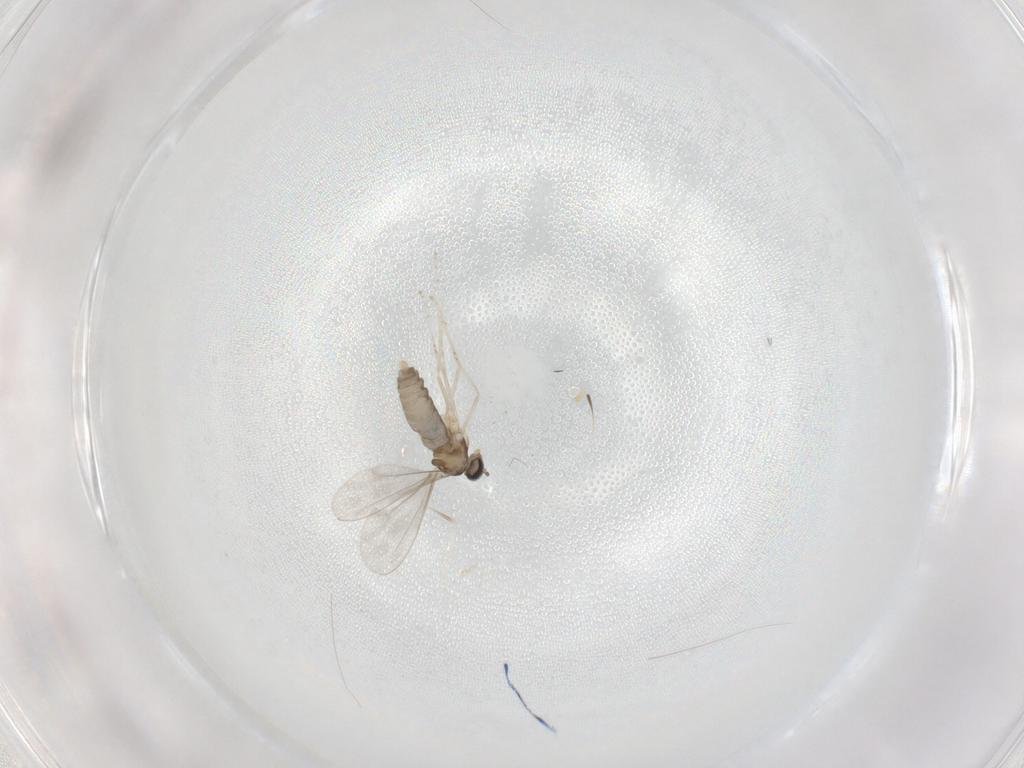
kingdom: Animalia
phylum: Arthropoda
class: Insecta
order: Diptera
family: Cecidomyiidae
